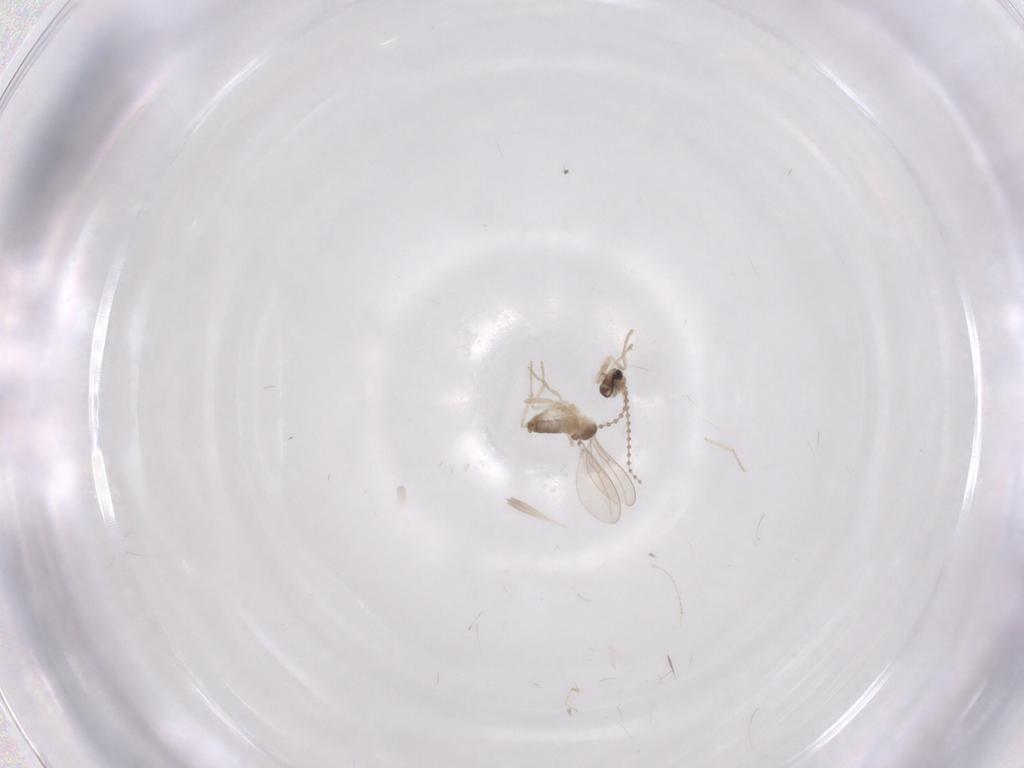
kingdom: Animalia
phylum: Arthropoda
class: Insecta
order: Diptera
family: Cecidomyiidae
